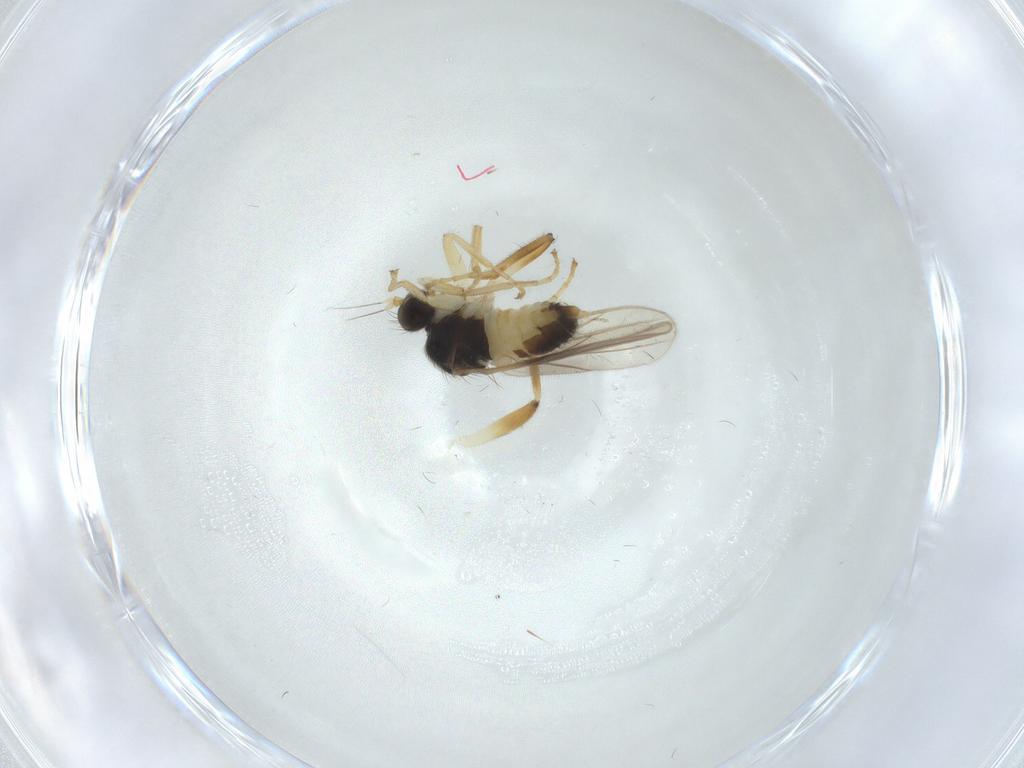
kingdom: Animalia
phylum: Arthropoda
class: Insecta
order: Diptera
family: Hybotidae
